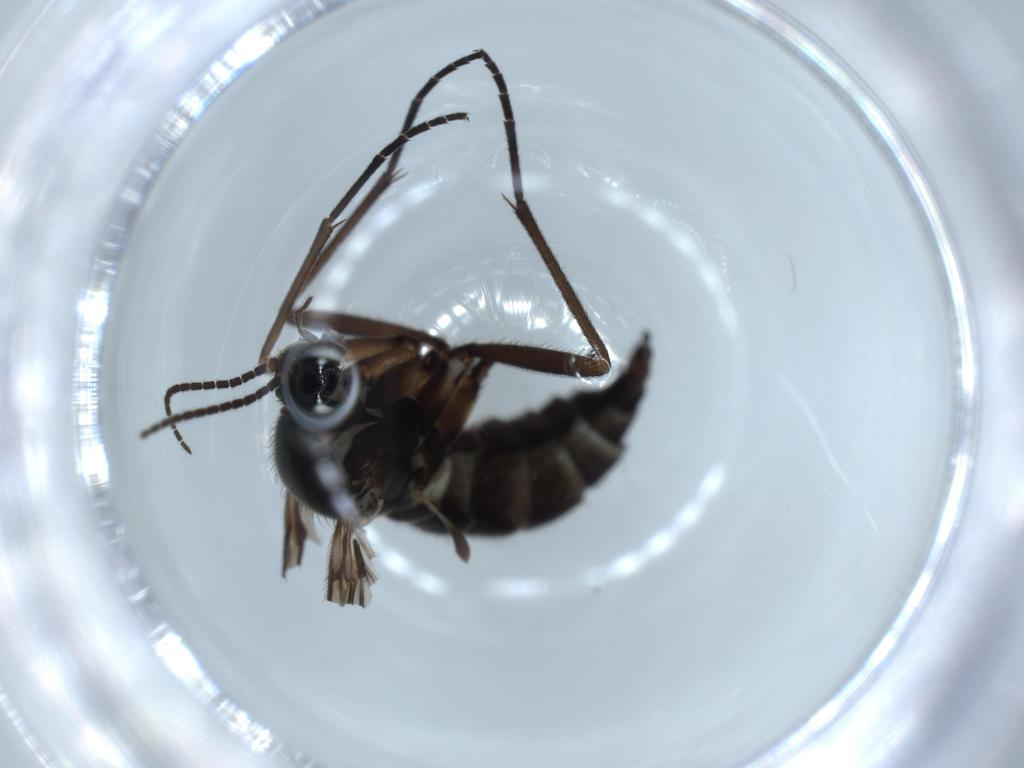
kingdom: Animalia
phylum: Arthropoda
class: Insecta
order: Diptera
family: Sciaridae
